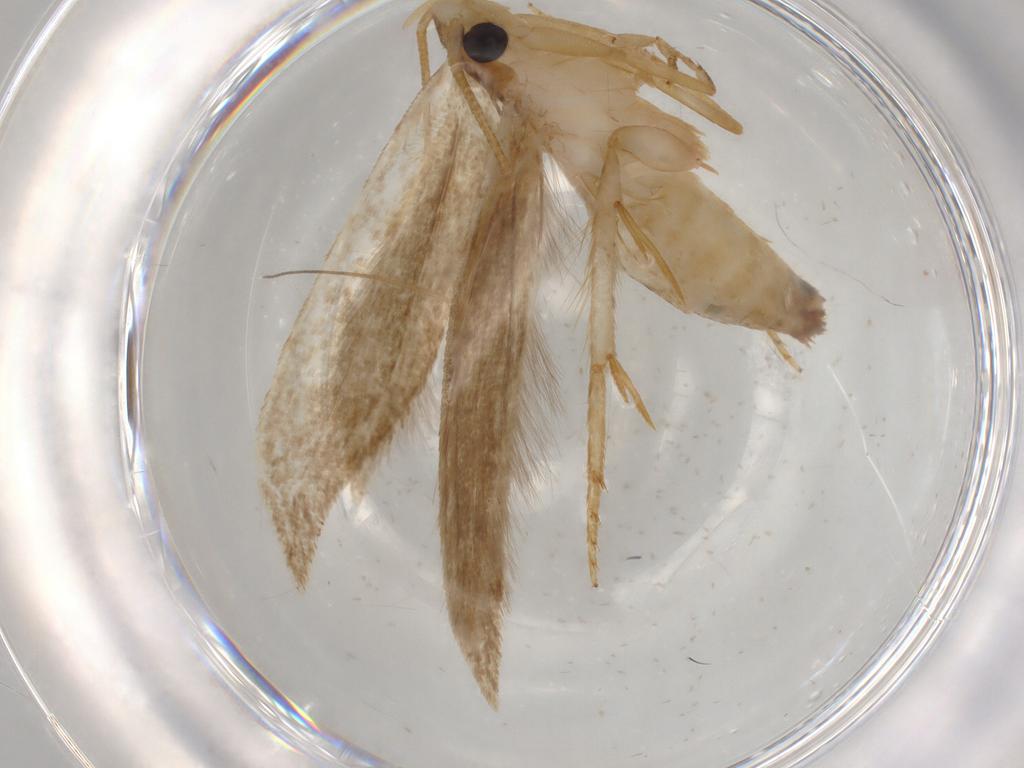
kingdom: Animalia
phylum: Arthropoda
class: Insecta
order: Lepidoptera
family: Tineidae
